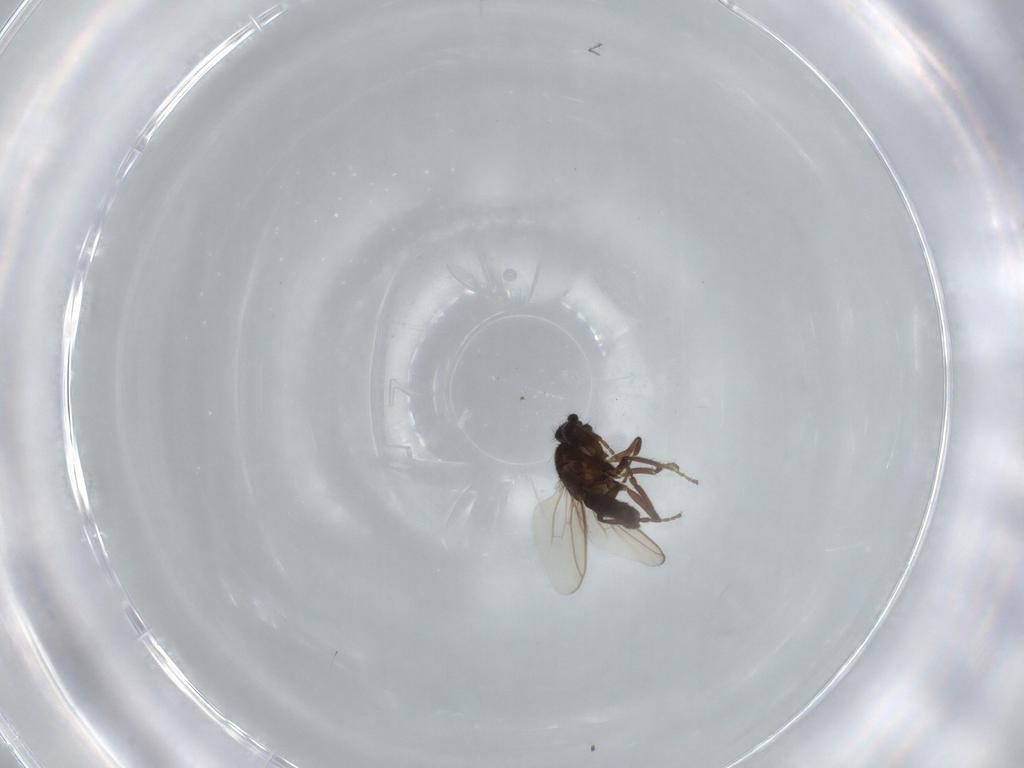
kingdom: Animalia
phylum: Arthropoda
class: Insecta
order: Diptera
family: Sphaeroceridae
